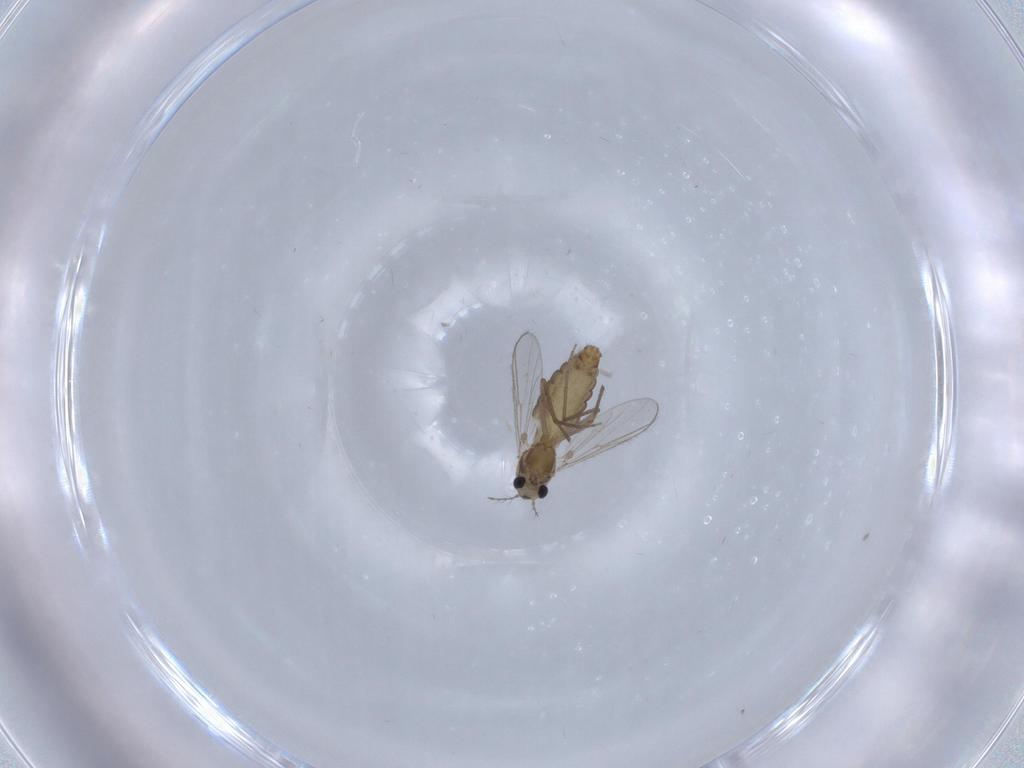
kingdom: Animalia
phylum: Arthropoda
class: Insecta
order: Diptera
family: Chironomidae
